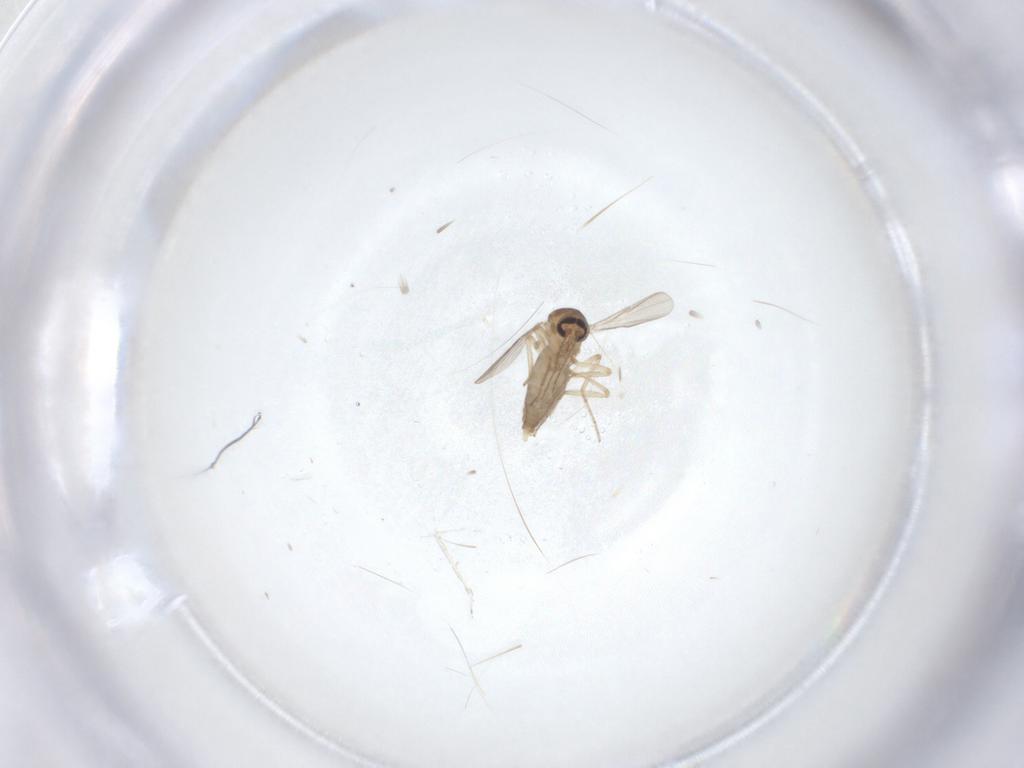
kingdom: Animalia
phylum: Arthropoda
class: Insecta
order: Diptera
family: Ceratopogonidae
